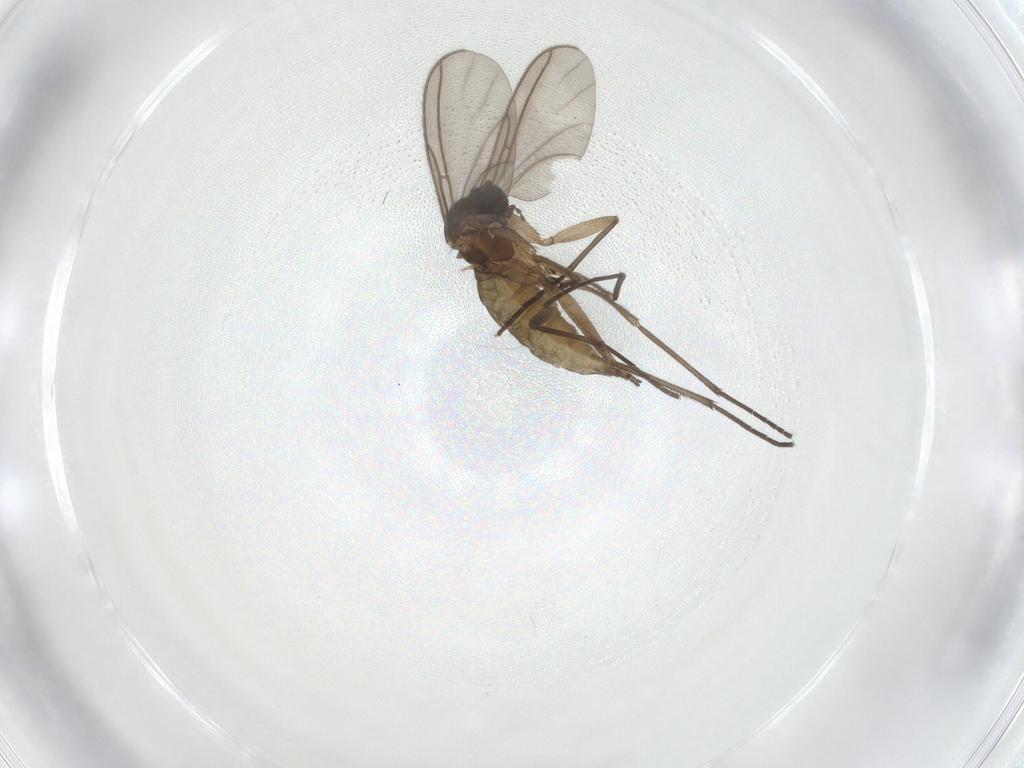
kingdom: Animalia
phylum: Arthropoda
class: Insecta
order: Diptera
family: Sciaridae
